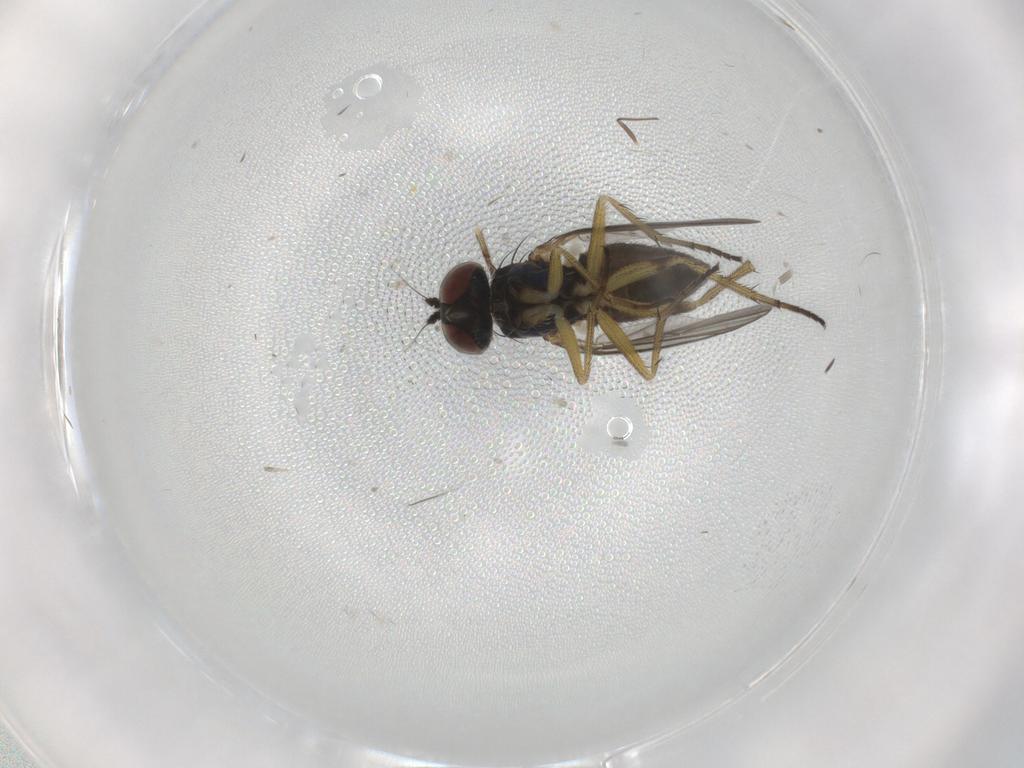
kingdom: Animalia
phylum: Arthropoda
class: Insecta
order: Diptera
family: Chironomidae
